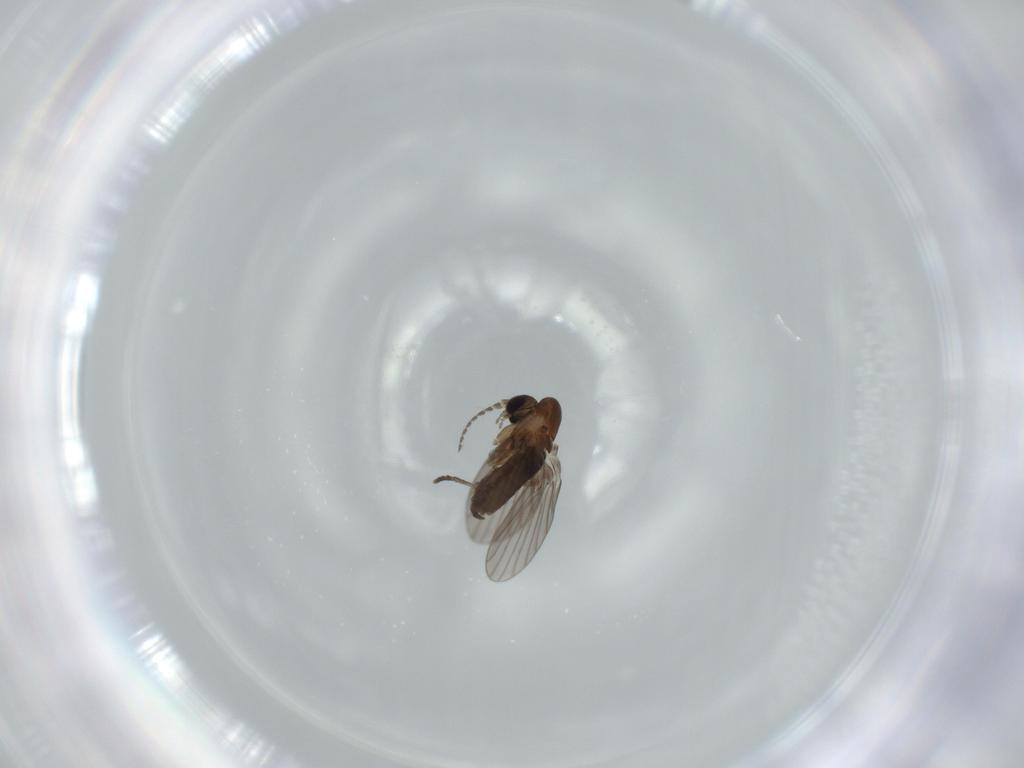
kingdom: Animalia
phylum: Arthropoda
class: Insecta
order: Diptera
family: Psychodidae
